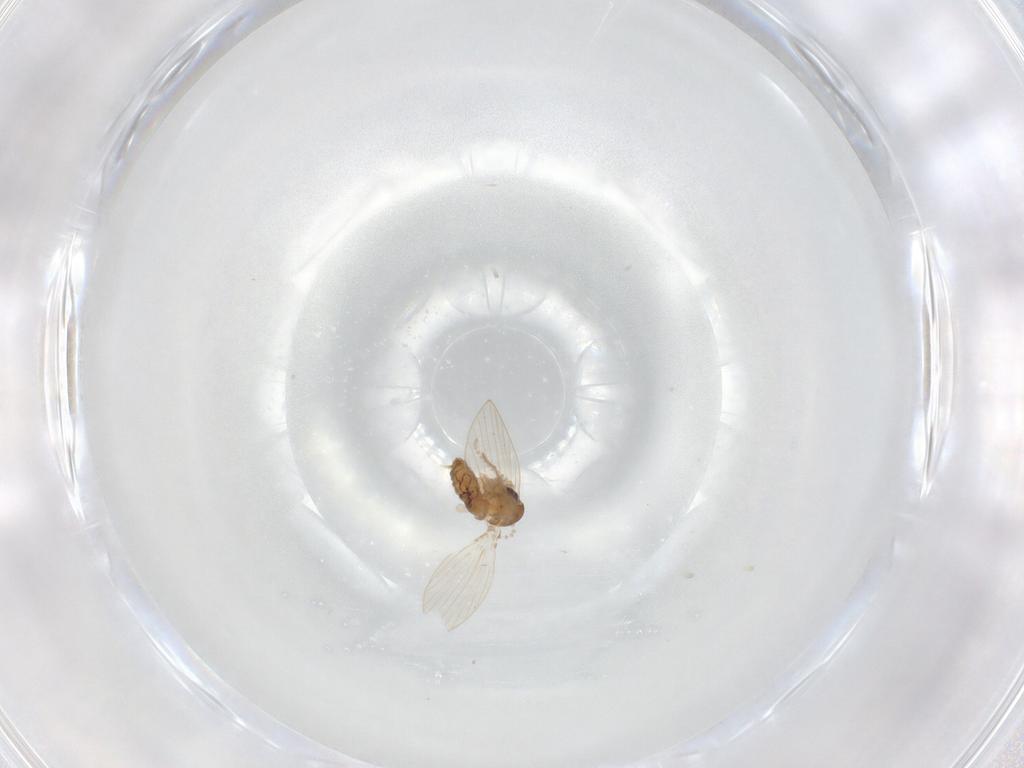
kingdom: Animalia
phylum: Arthropoda
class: Insecta
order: Diptera
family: Psychodidae
